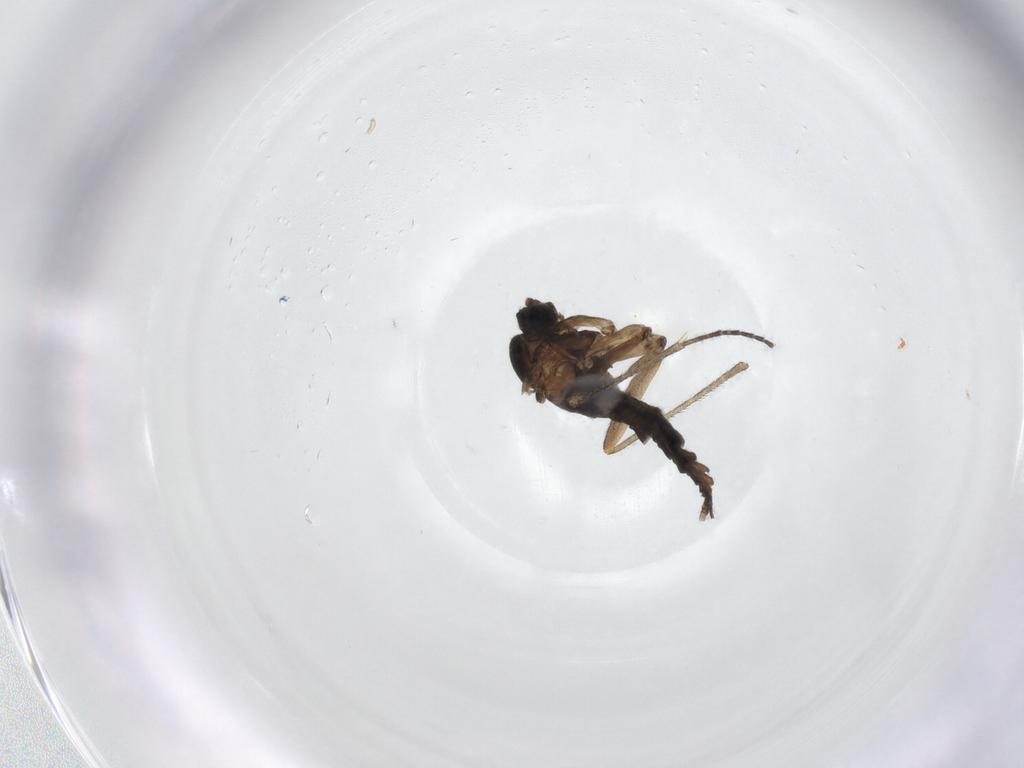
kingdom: Animalia
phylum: Arthropoda
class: Insecta
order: Diptera
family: Sciaridae
